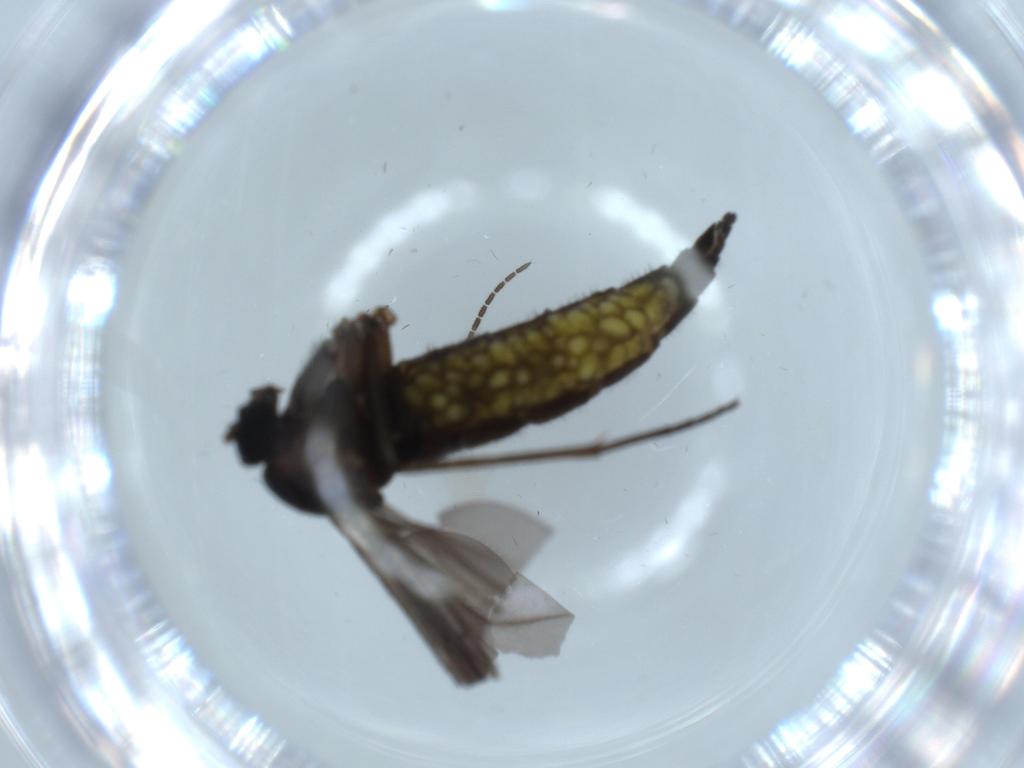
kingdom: Animalia
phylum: Arthropoda
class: Insecta
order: Diptera
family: Sciaridae
